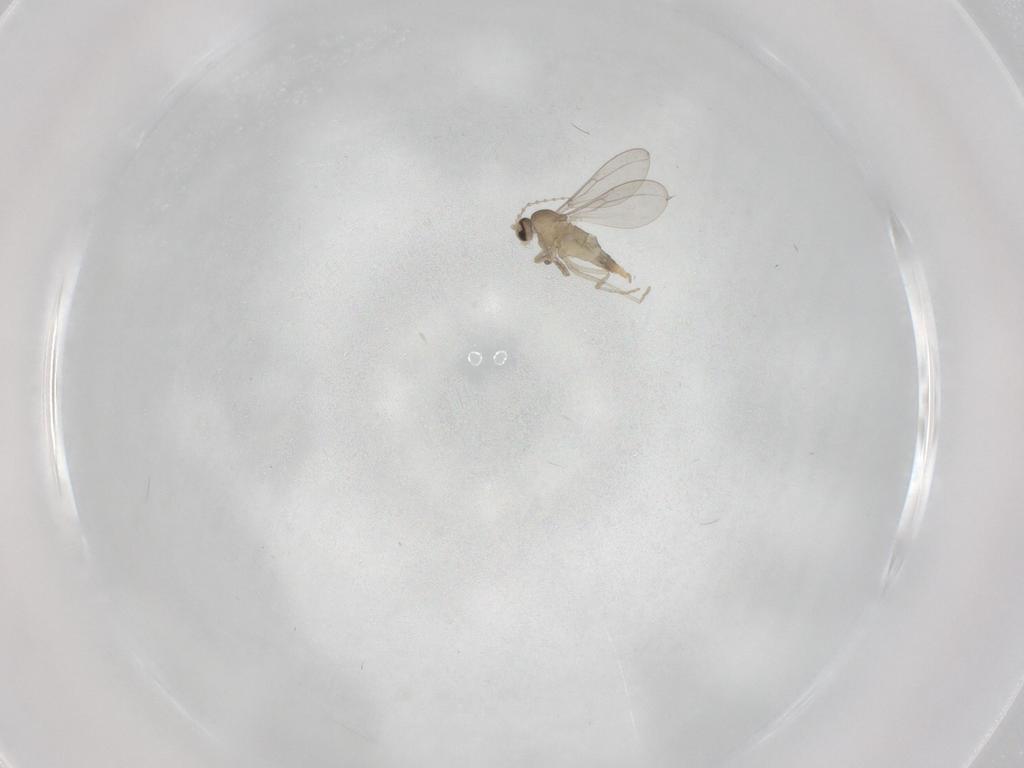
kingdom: Animalia
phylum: Arthropoda
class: Insecta
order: Diptera
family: Cecidomyiidae
